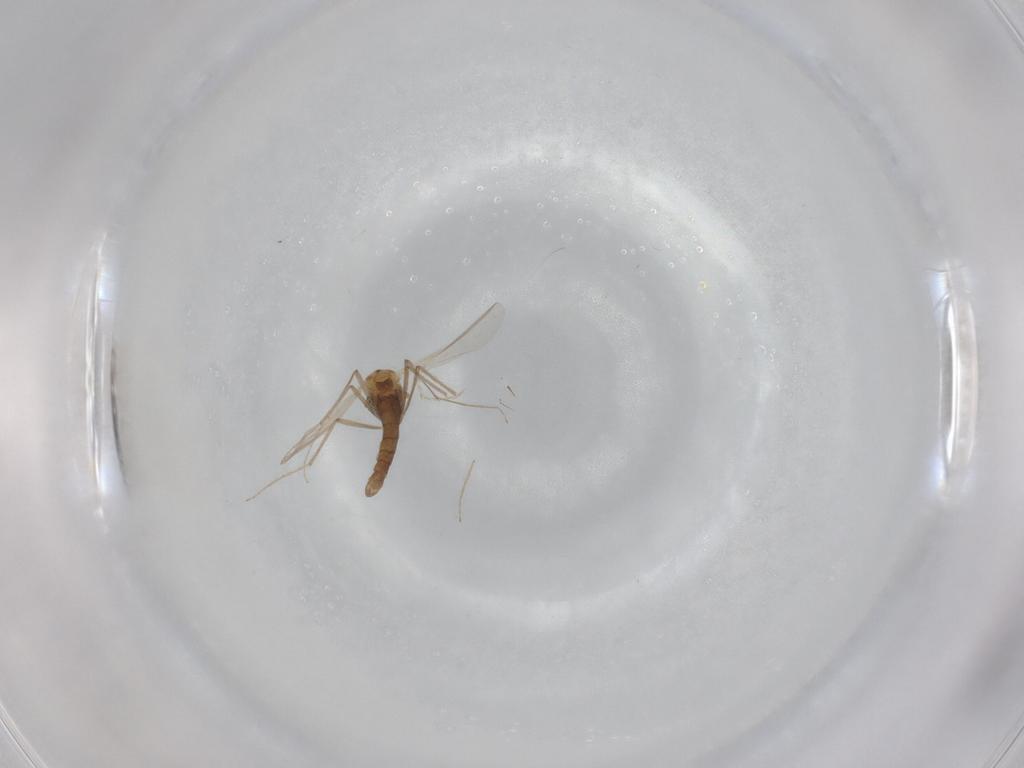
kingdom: Animalia
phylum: Arthropoda
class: Insecta
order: Diptera
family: Chironomidae
